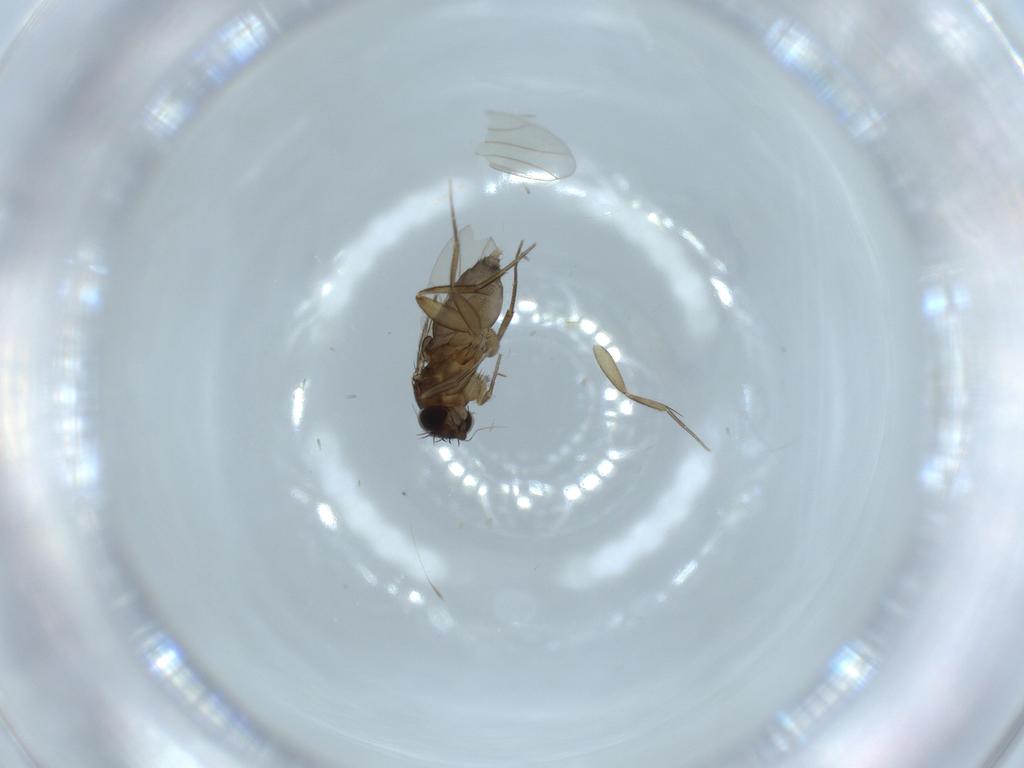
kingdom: Animalia
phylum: Arthropoda
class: Insecta
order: Diptera
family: Phoridae
